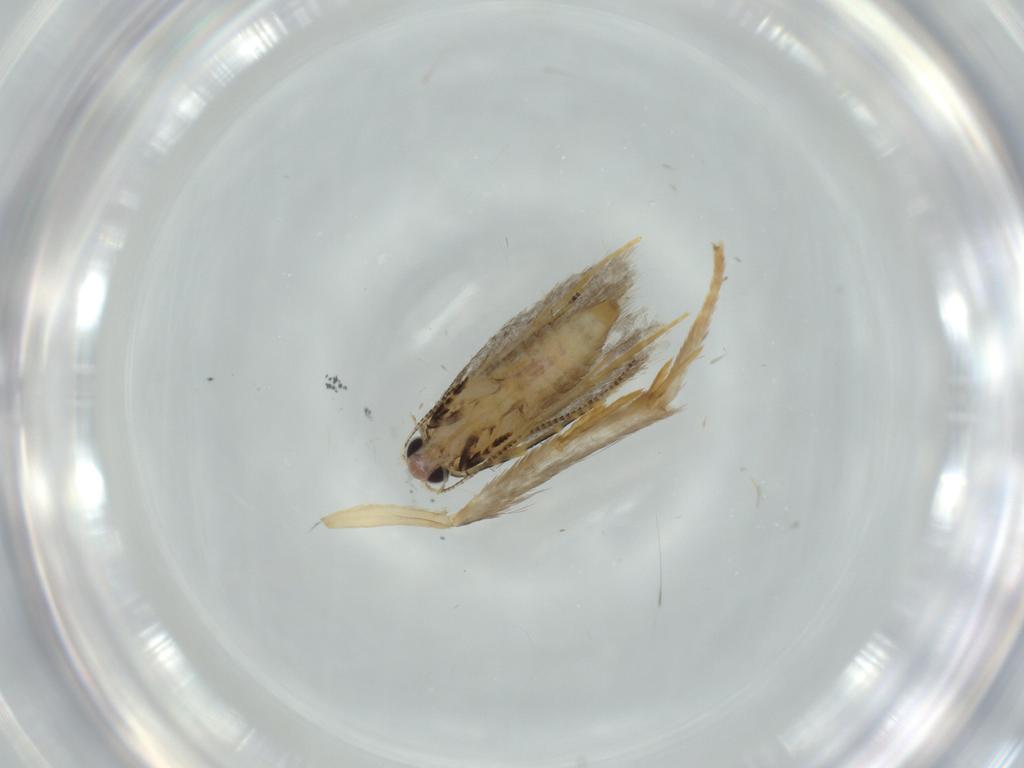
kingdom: Animalia
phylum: Arthropoda
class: Insecta
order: Lepidoptera
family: Tineidae
